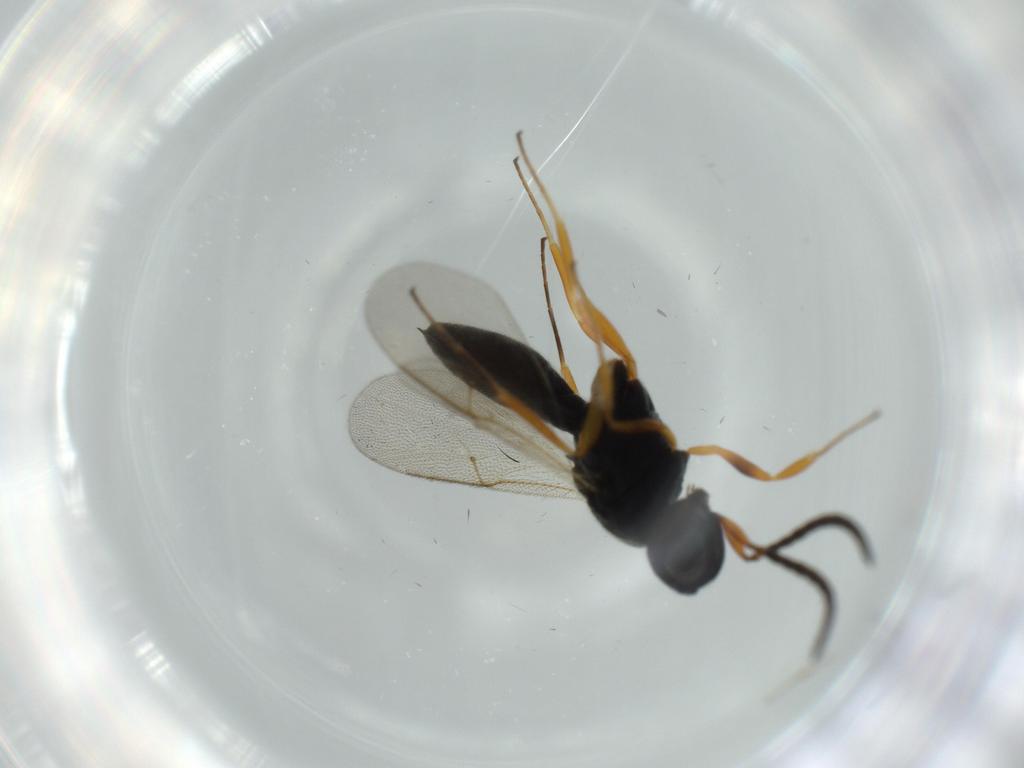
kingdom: Animalia
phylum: Arthropoda
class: Insecta
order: Hymenoptera
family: Scelionidae
